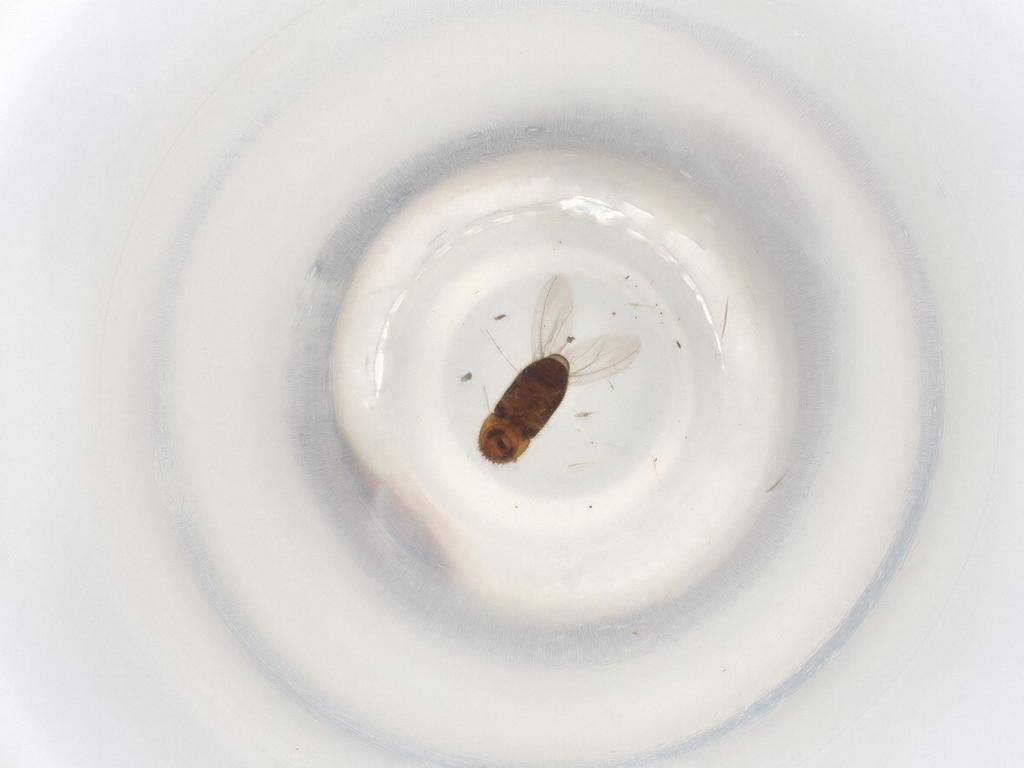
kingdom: Animalia
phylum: Arthropoda
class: Insecta
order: Coleoptera
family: Curculionidae
